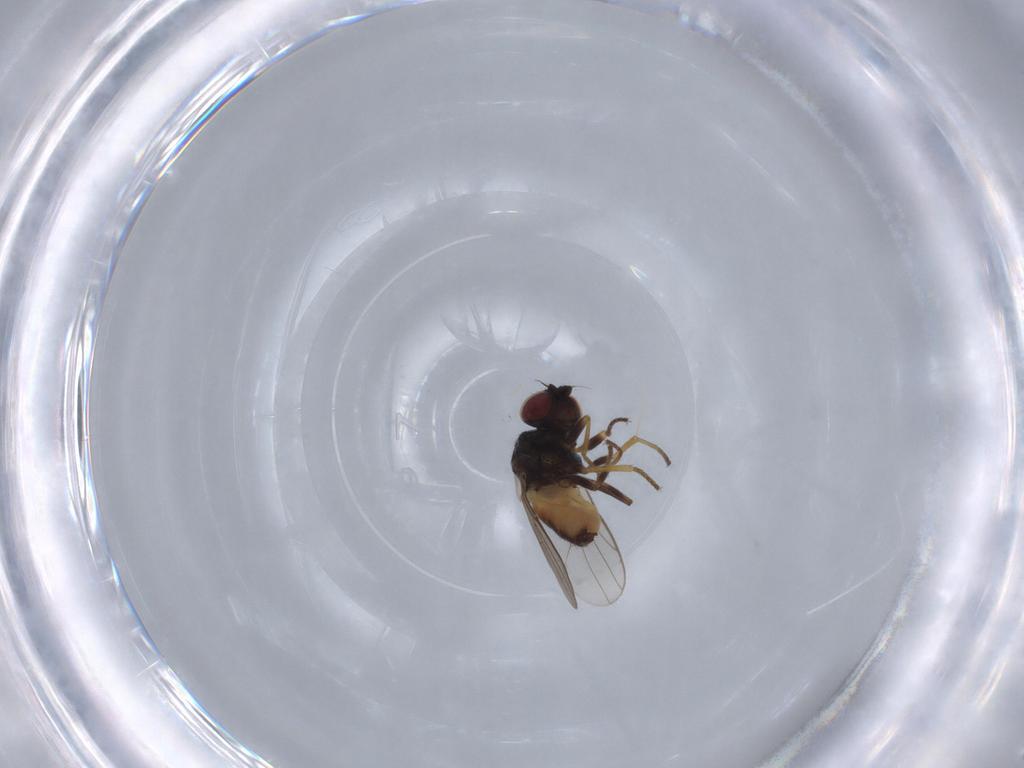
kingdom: Animalia
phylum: Arthropoda
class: Insecta
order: Diptera
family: Chloropidae
